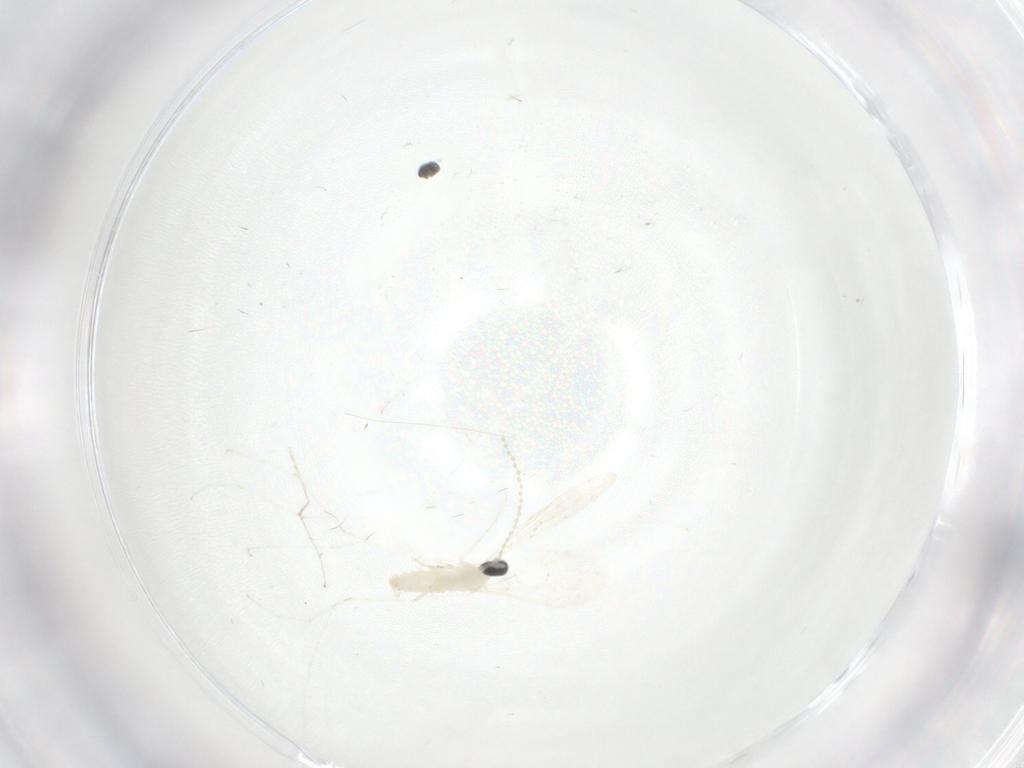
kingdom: Animalia
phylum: Arthropoda
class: Insecta
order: Diptera
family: Cecidomyiidae
